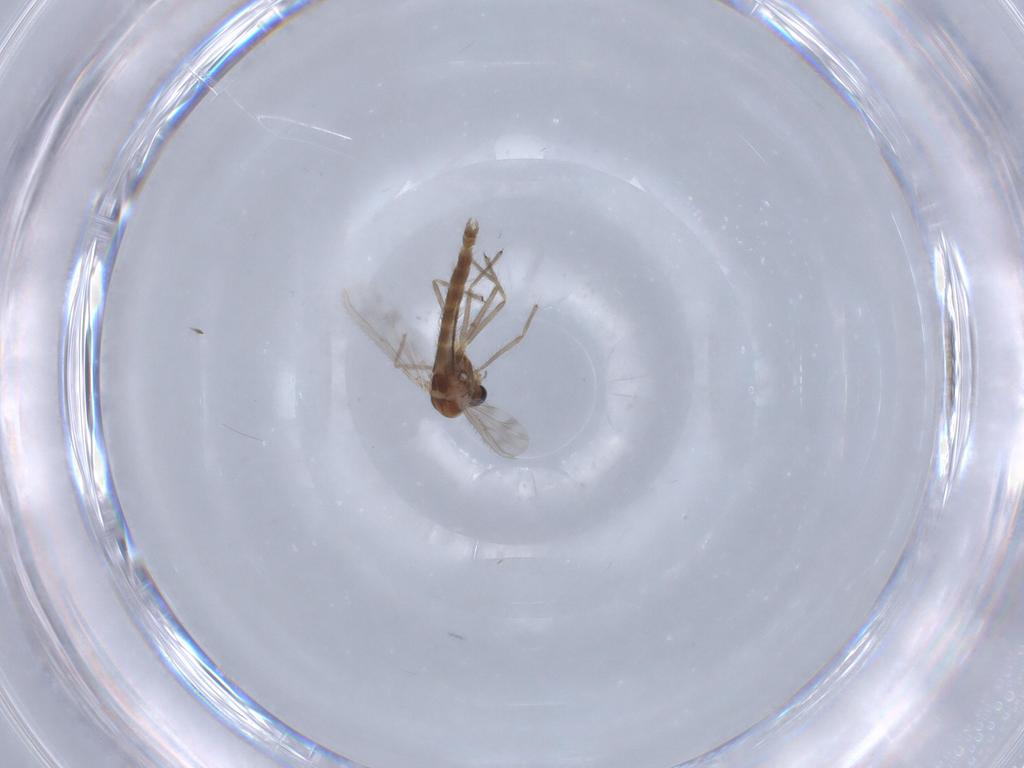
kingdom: Animalia
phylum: Arthropoda
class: Insecta
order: Diptera
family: Chironomidae
